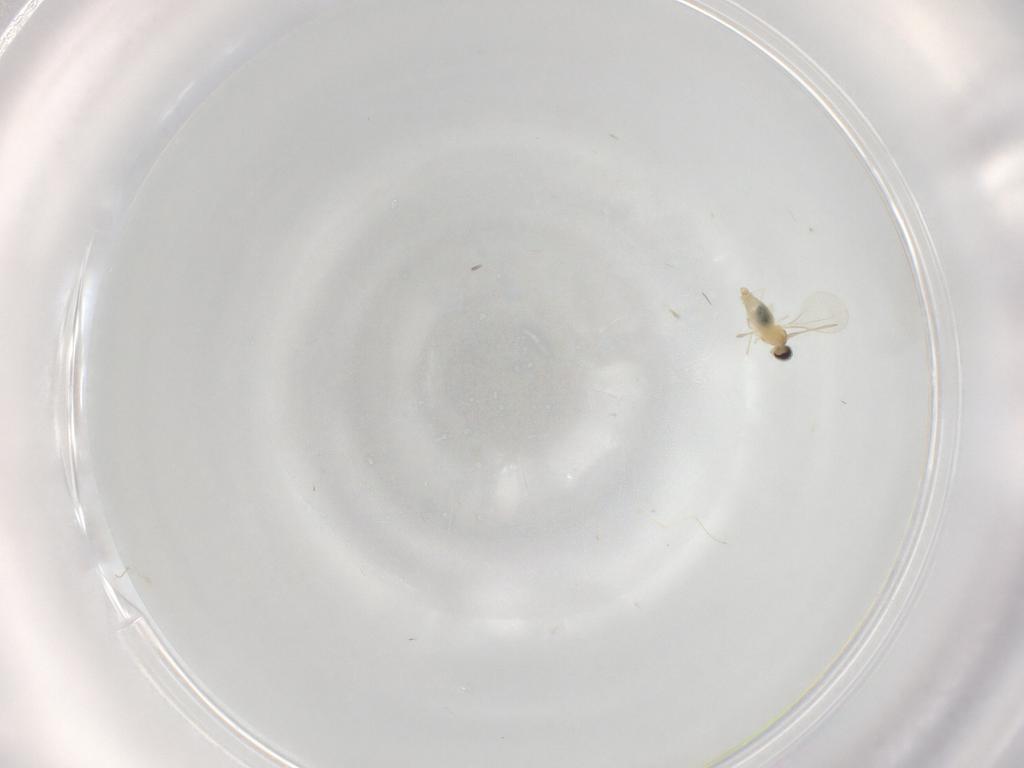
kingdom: Animalia
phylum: Arthropoda
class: Insecta
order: Diptera
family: Cecidomyiidae
